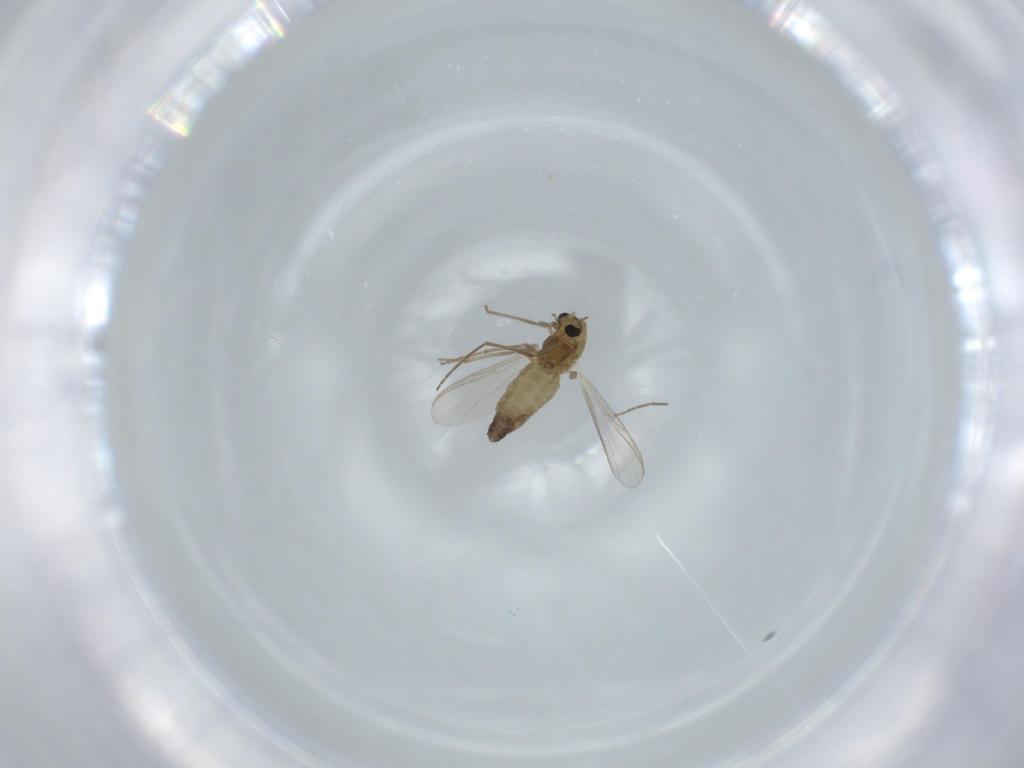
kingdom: Animalia
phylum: Arthropoda
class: Insecta
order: Diptera
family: Chironomidae
